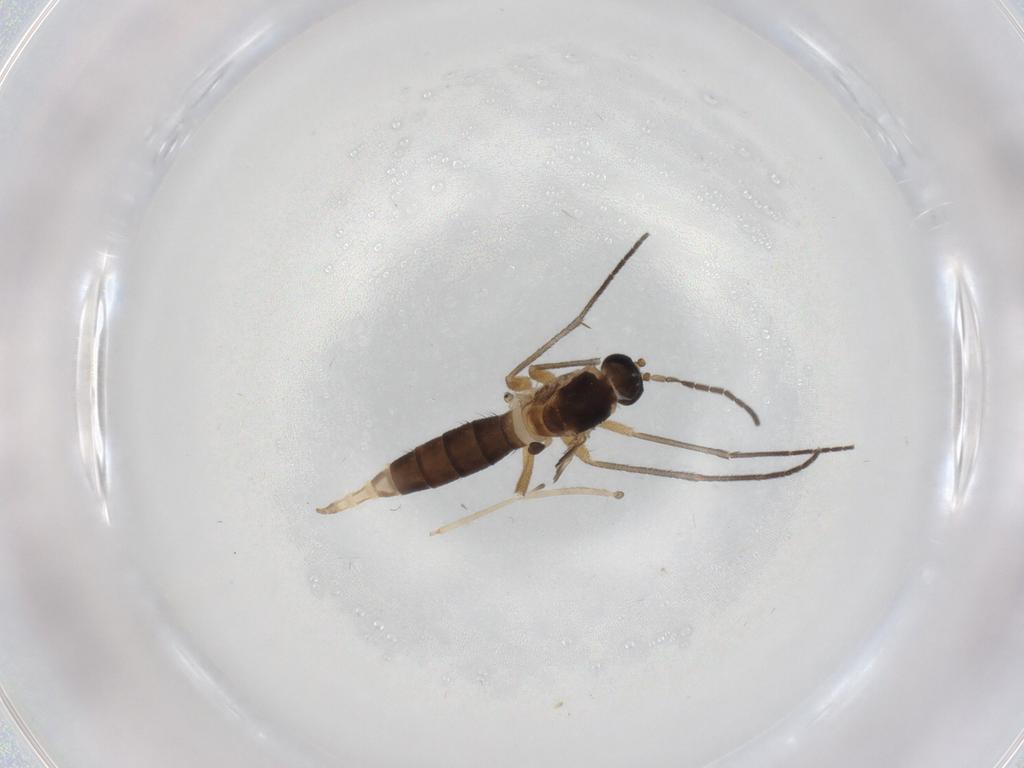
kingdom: Animalia
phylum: Arthropoda
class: Insecta
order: Diptera
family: Sciaridae
